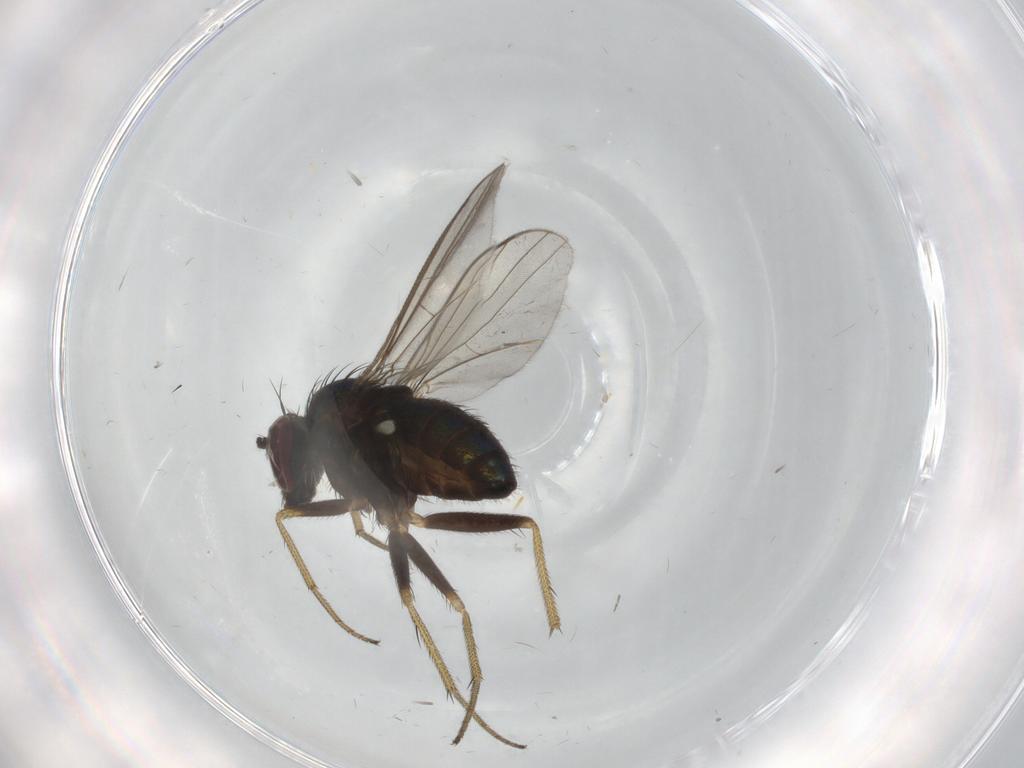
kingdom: Animalia
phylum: Arthropoda
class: Insecta
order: Diptera
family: Dolichopodidae
